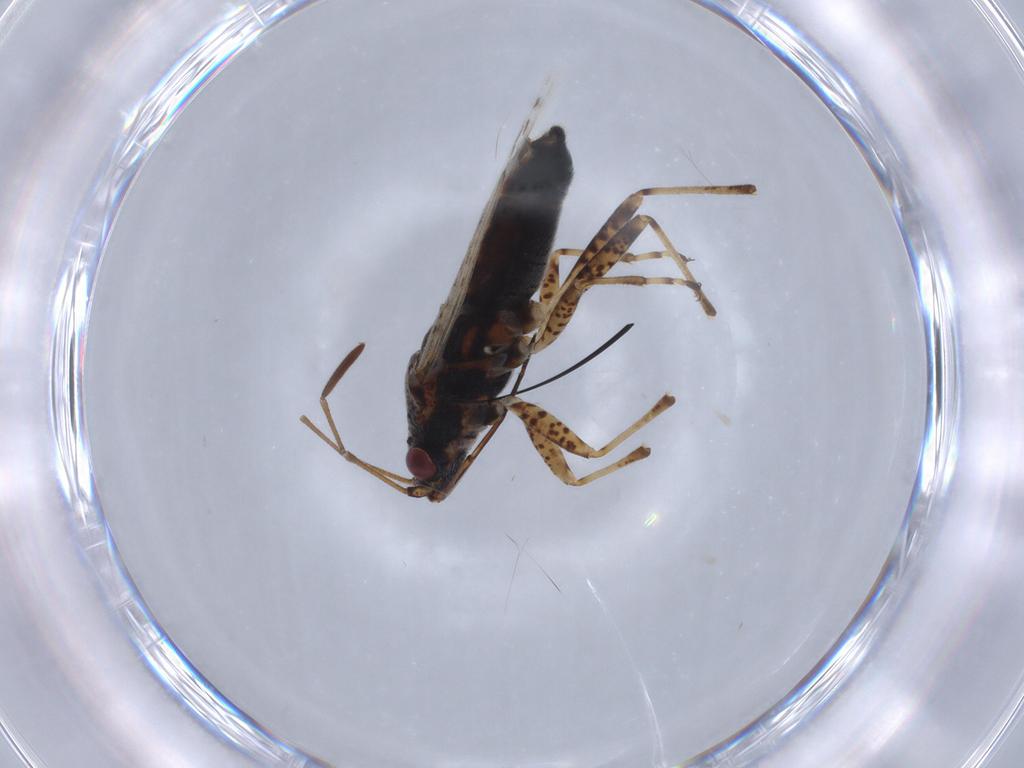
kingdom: Animalia
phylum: Arthropoda
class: Insecta
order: Hemiptera
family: Lygaeidae
